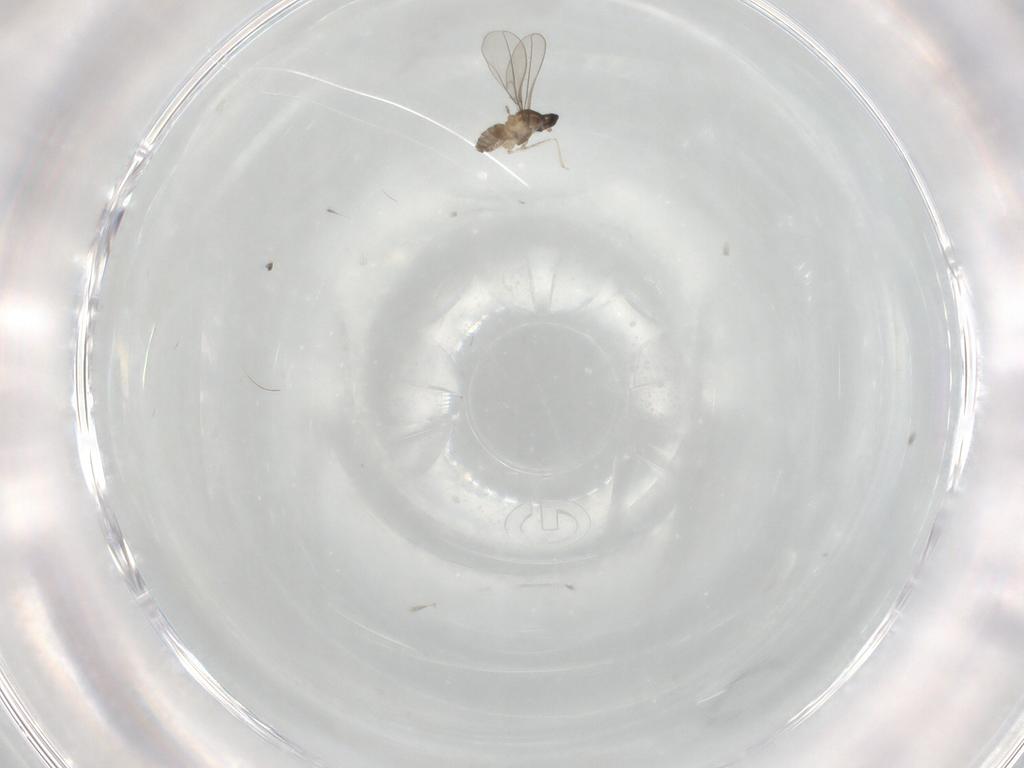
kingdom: Animalia
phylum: Arthropoda
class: Insecta
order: Diptera
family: Cecidomyiidae
